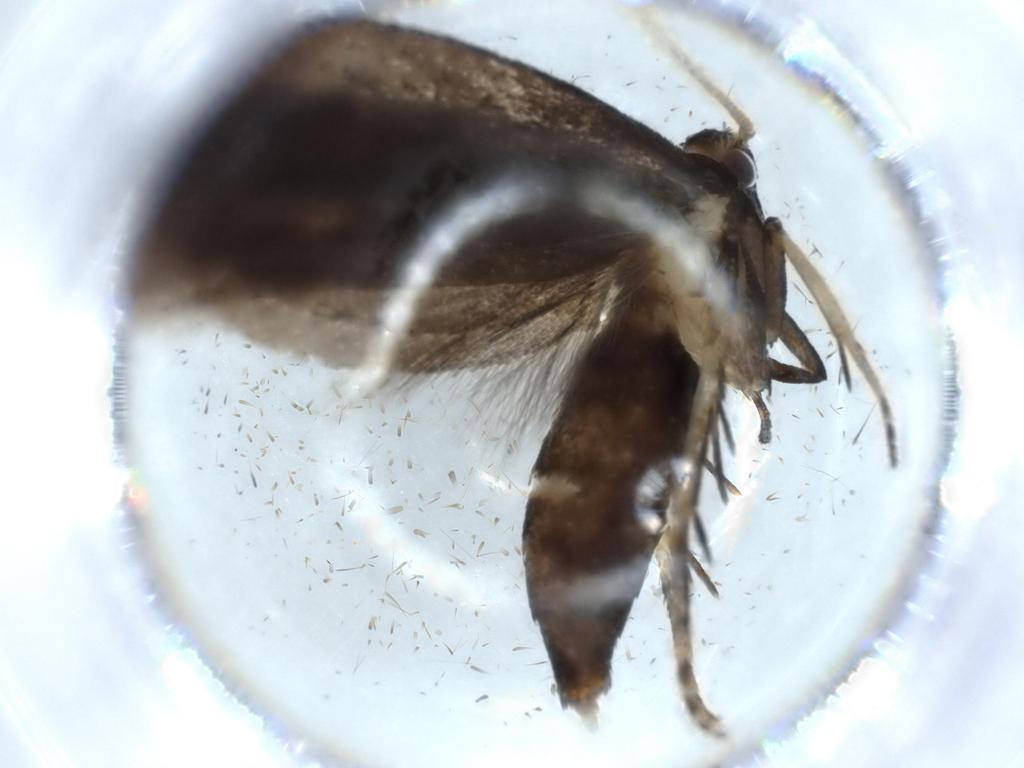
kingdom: Animalia
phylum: Arthropoda
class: Insecta
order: Lepidoptera
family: Lecithoceridae
